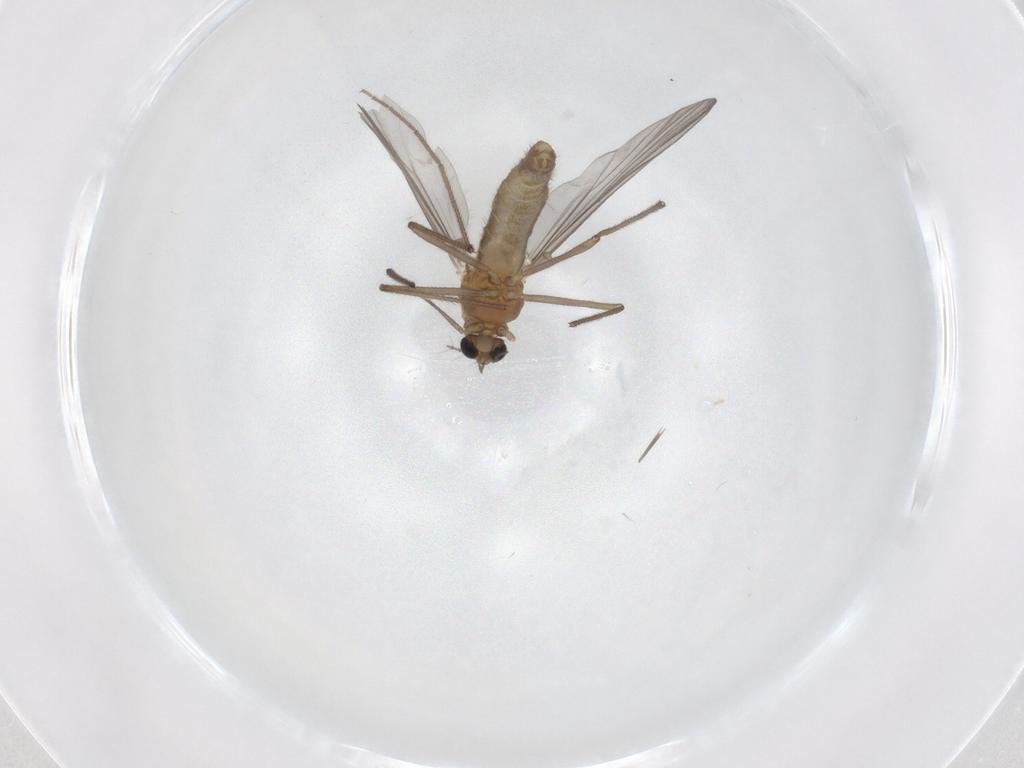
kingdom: Animalia
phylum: Arthropoda
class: Insecta
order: Diptera
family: Chironomidae
